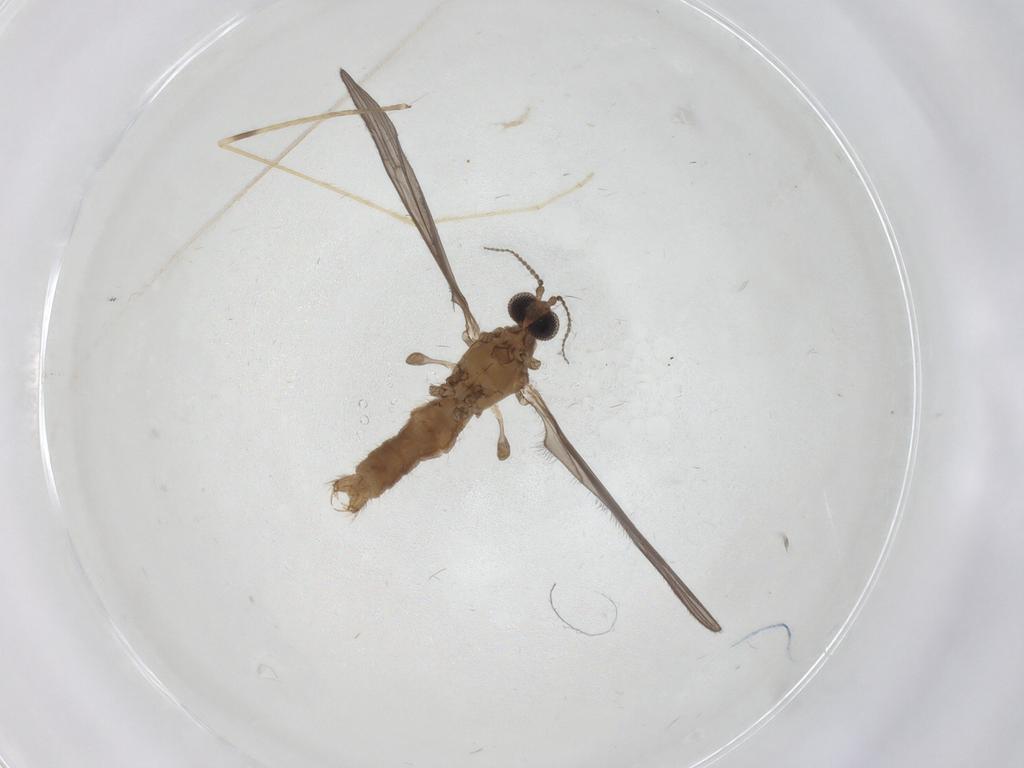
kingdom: Animalia
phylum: Arthropoda
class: Insecta
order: Diptera
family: Limoniidae
